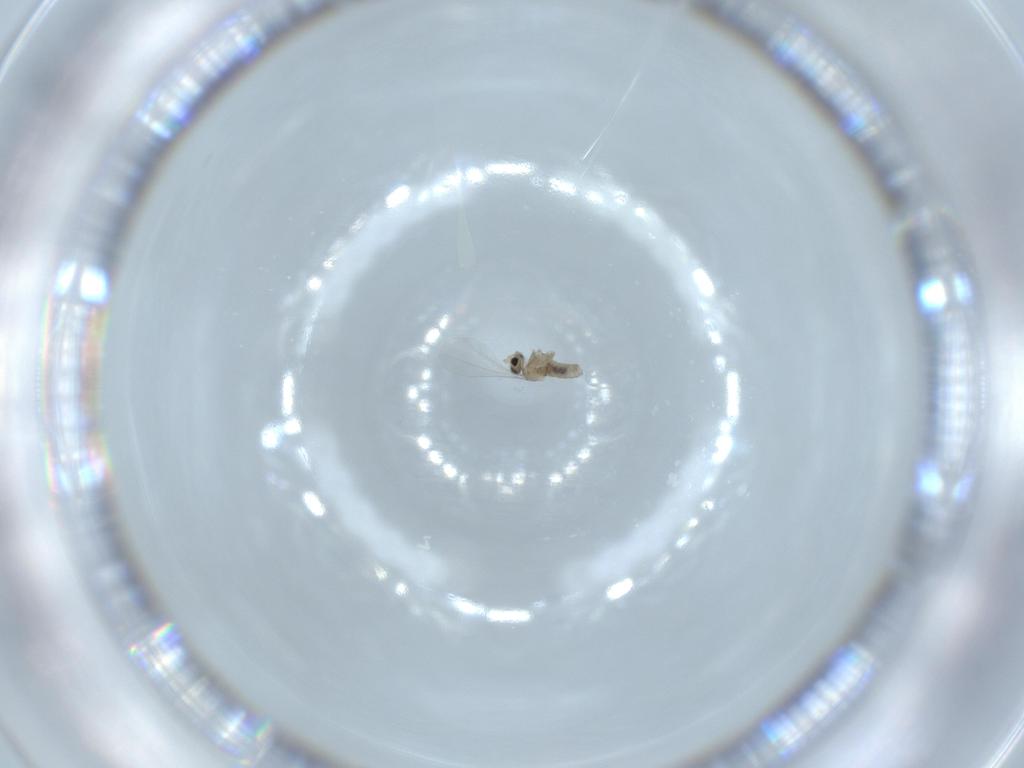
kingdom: Animalia
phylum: Arthropoda
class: Insecta
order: Diptera
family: Cecidomyiidae
